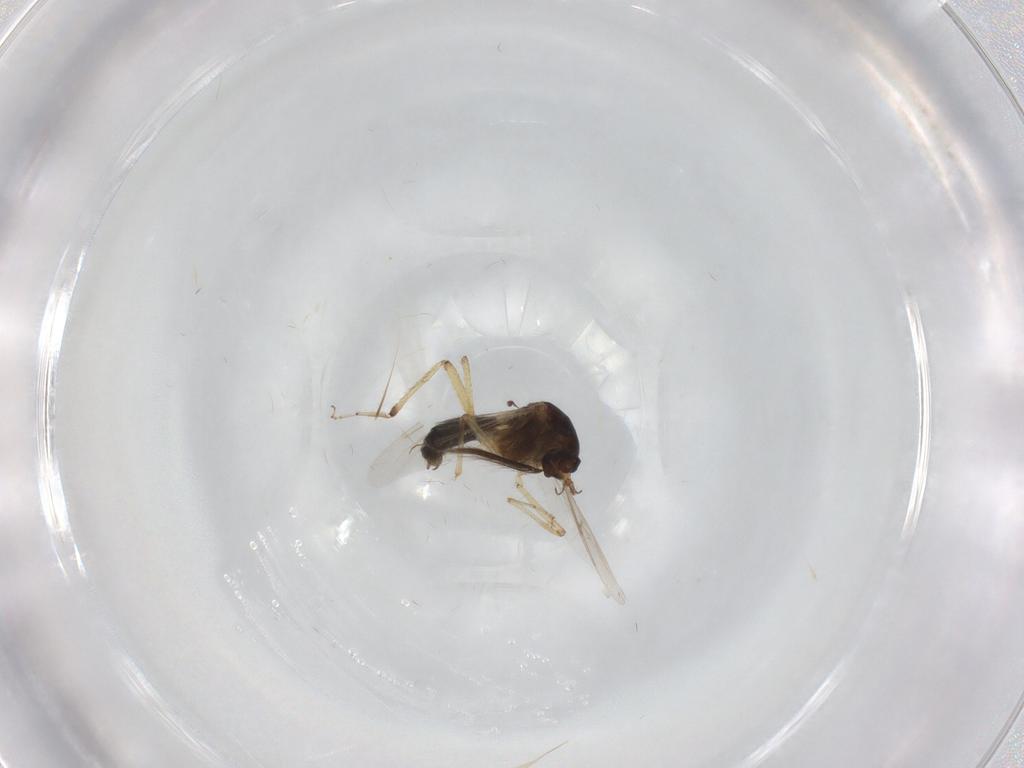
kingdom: Animalia
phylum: Arthropoda
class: Insecta
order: Diptera
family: Ceratopogonidae
